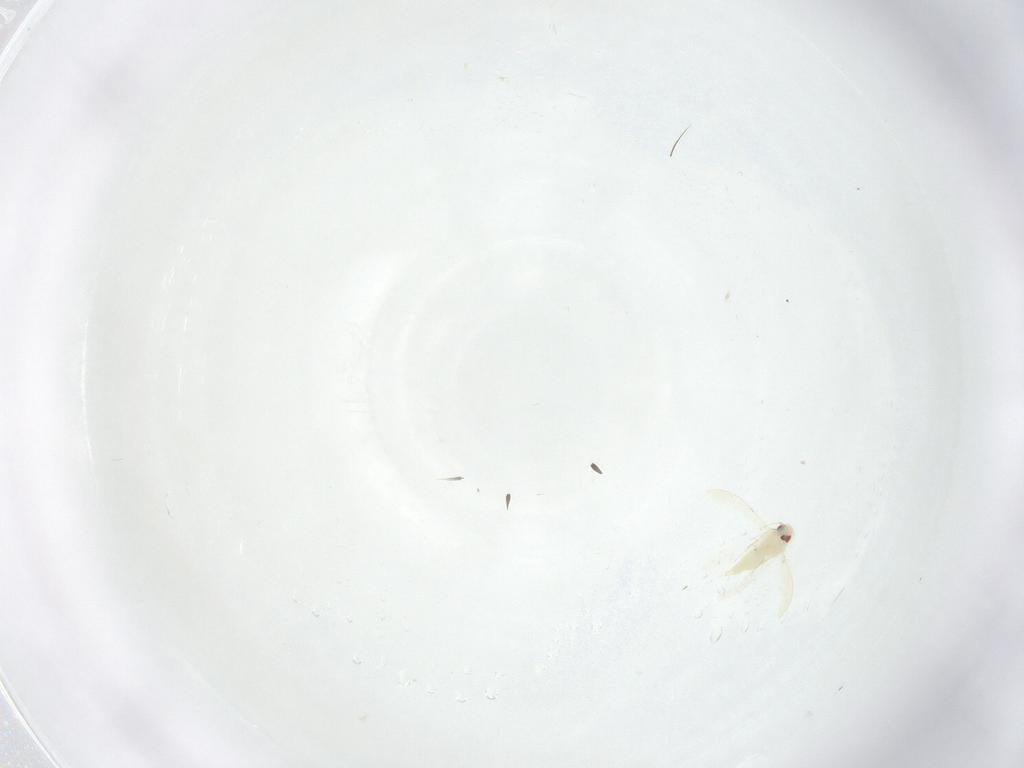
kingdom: Animalia
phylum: Arthropoda
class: Insecta
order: Hemiptera
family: Aleyrodidae
